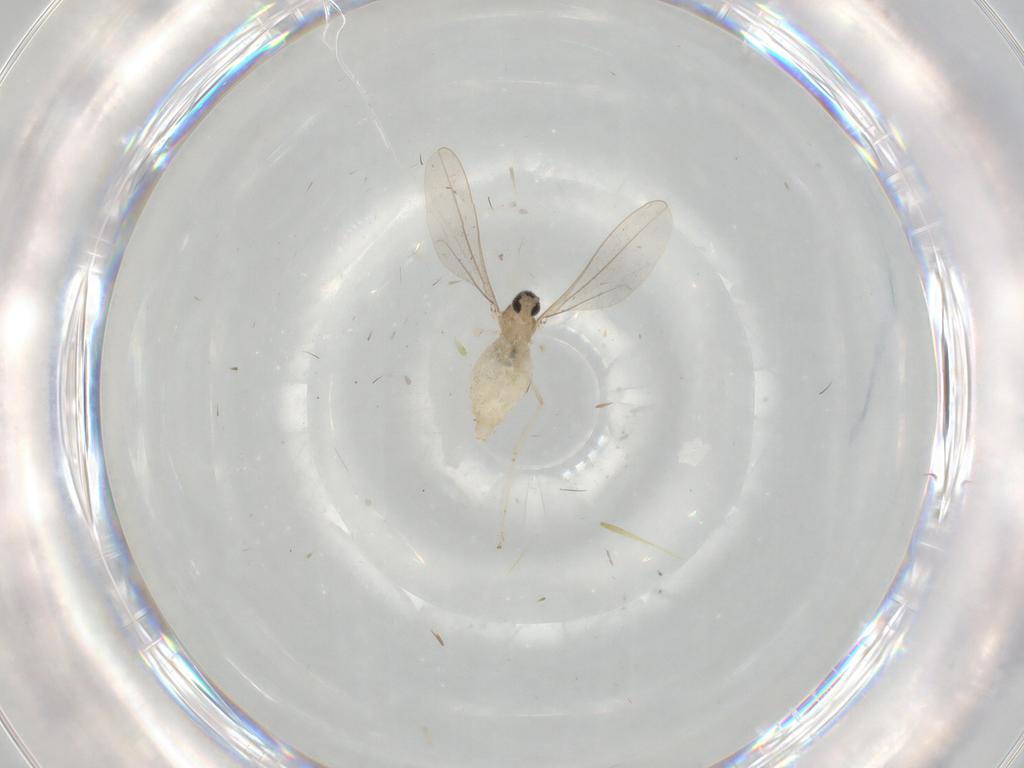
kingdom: Animalia
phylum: Arthropoda
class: Insecta
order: Diptera
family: Cecidomyiidae
